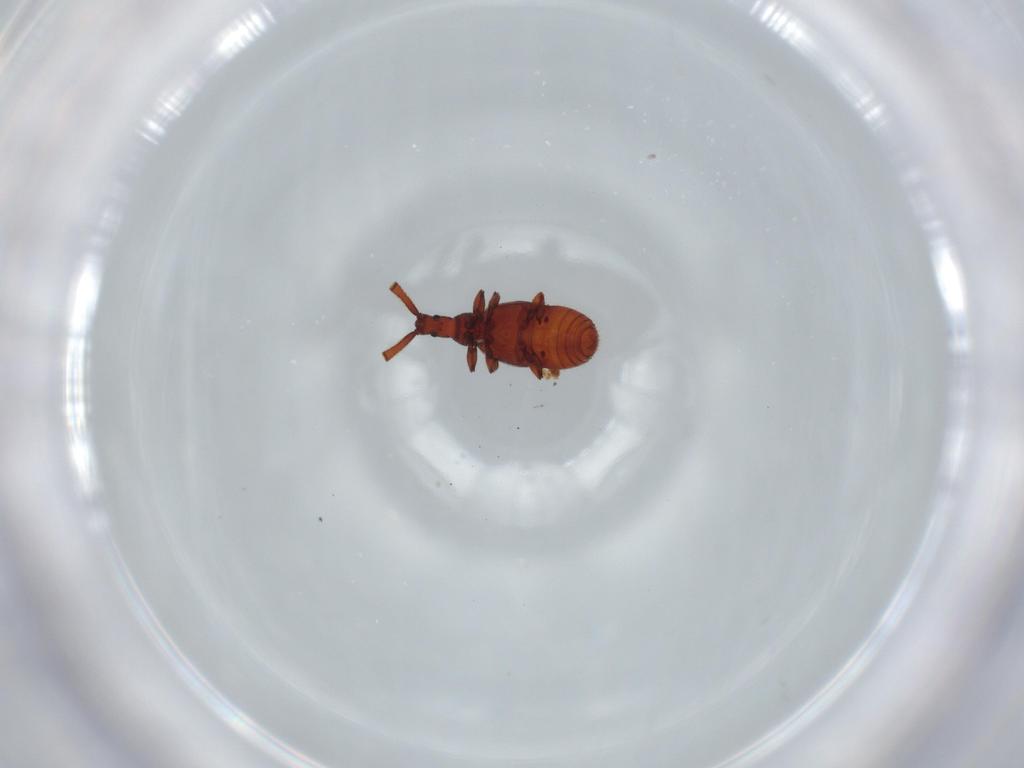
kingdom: Animalia
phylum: Arthropoda
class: Insecta
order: Coleoptera
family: Staphylinidae
